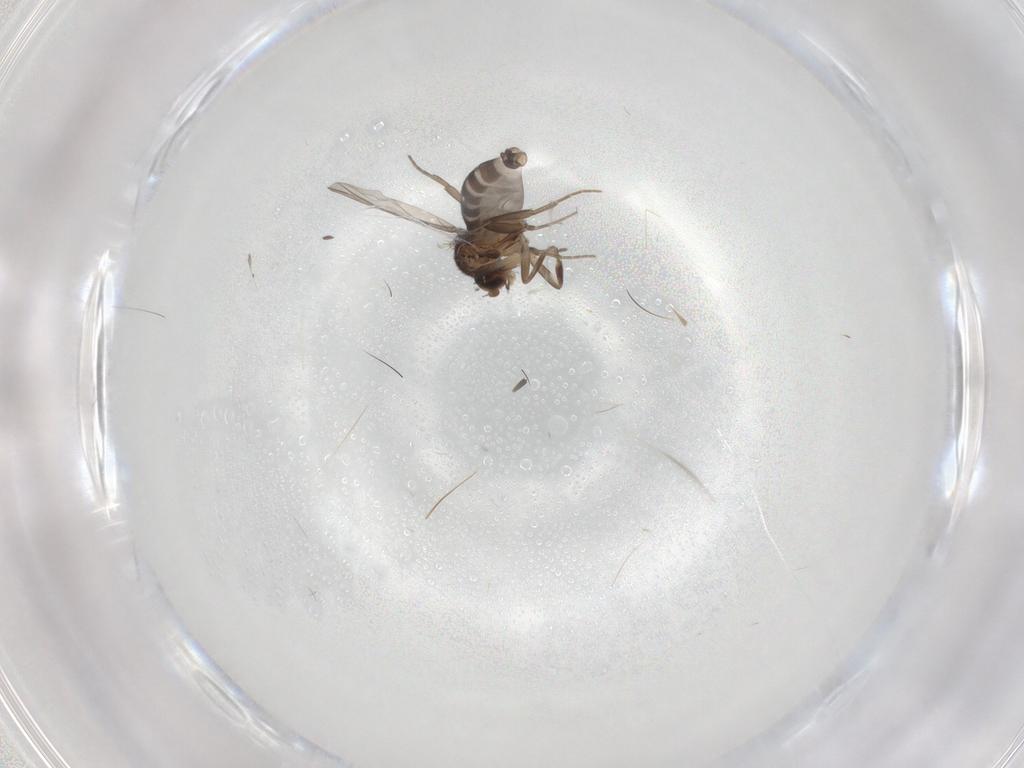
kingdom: Animalia
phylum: Arthropoda
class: Insecta
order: Diptera
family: Phoridae
